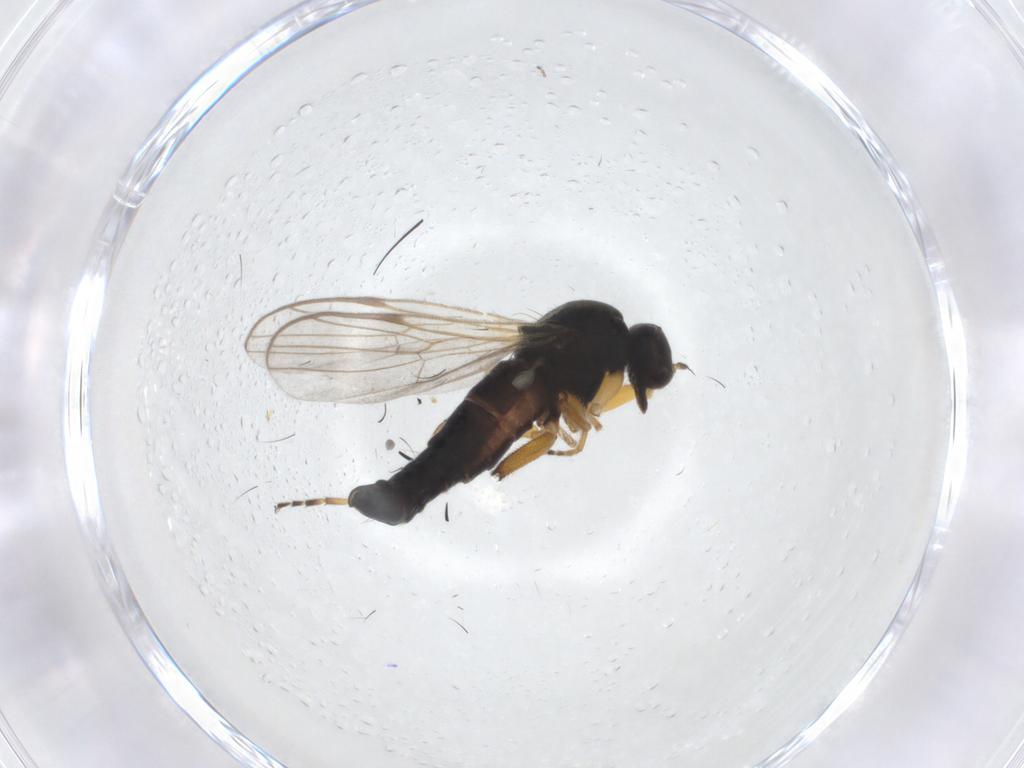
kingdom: Animalia
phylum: Arthropoda
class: Insecta
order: Diptera
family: Hybotidae
